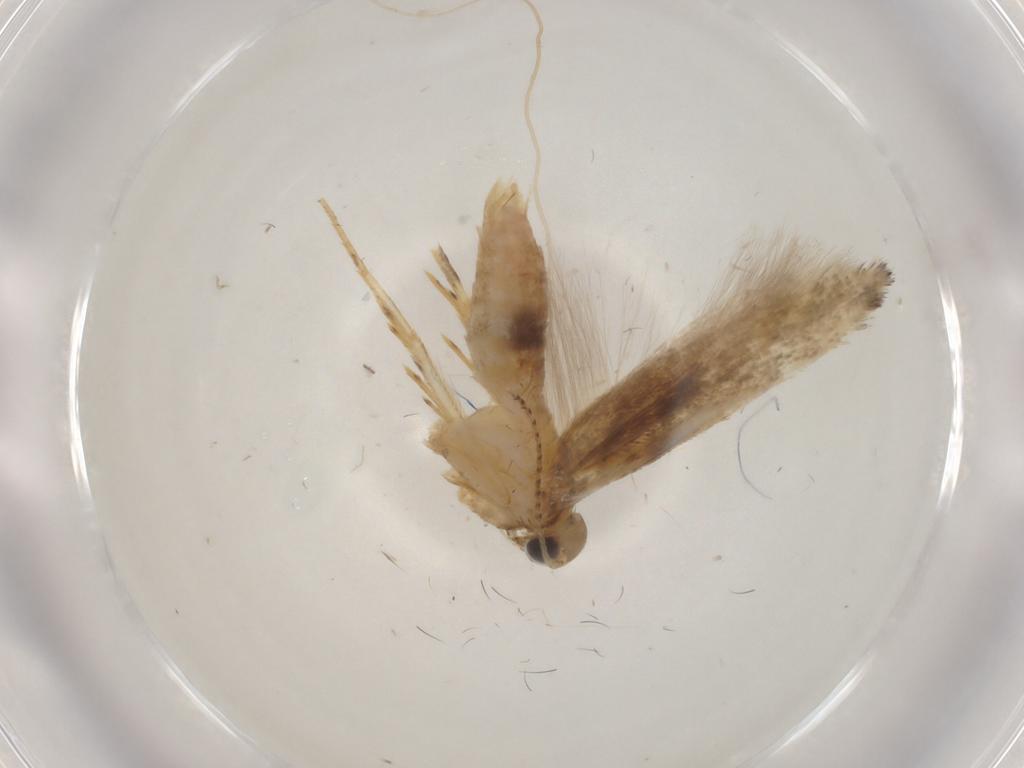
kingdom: Animalia
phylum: Arthropoda
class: Insecta
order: Lepidoptera
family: Gelechiidae
